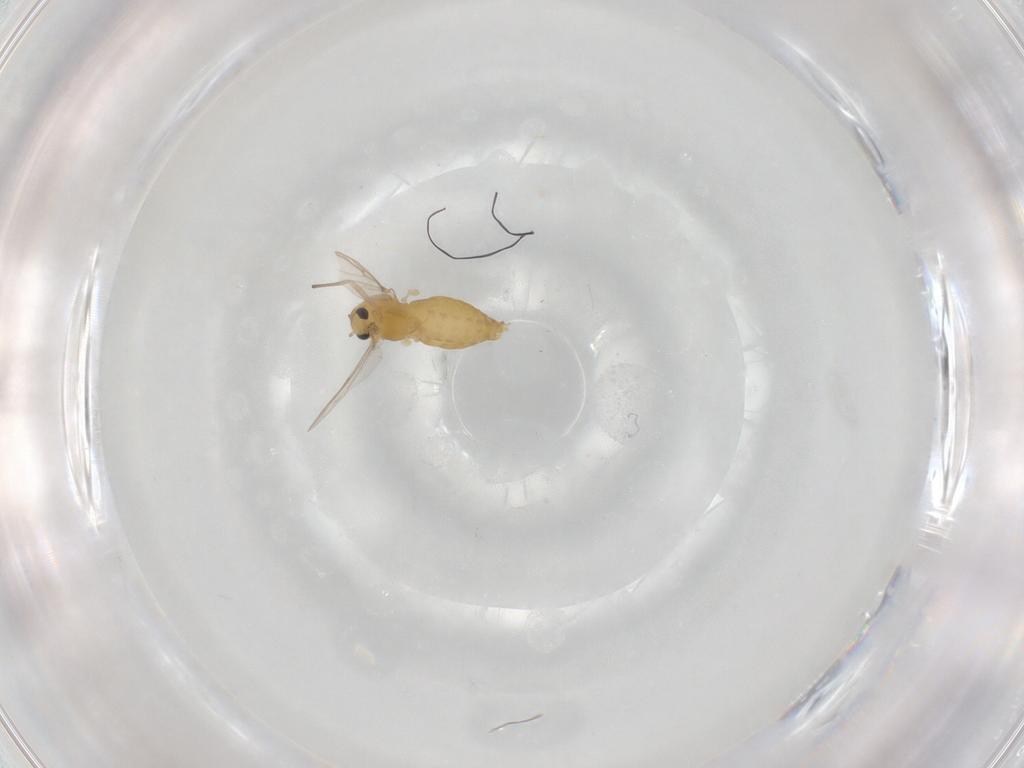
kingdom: Animalia
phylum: Arthropoda
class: Insecta
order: Diptera
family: Chironomidae
